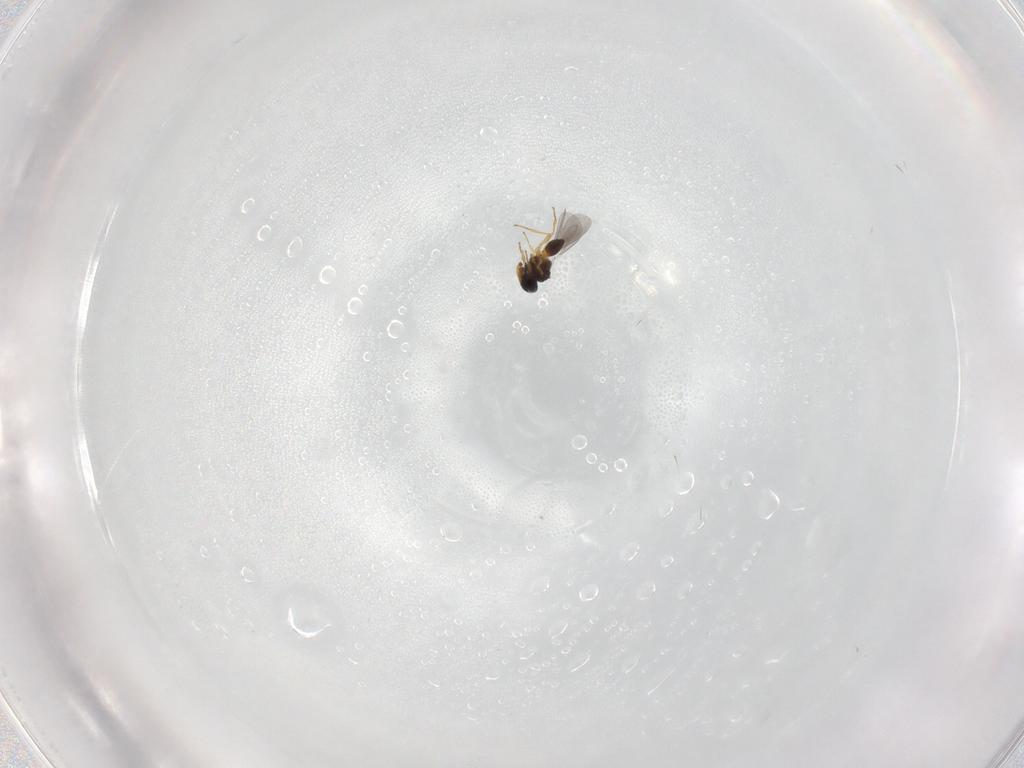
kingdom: Animalia
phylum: Arthropoda
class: Insecta
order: Hymenoptera
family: Platygastridae
